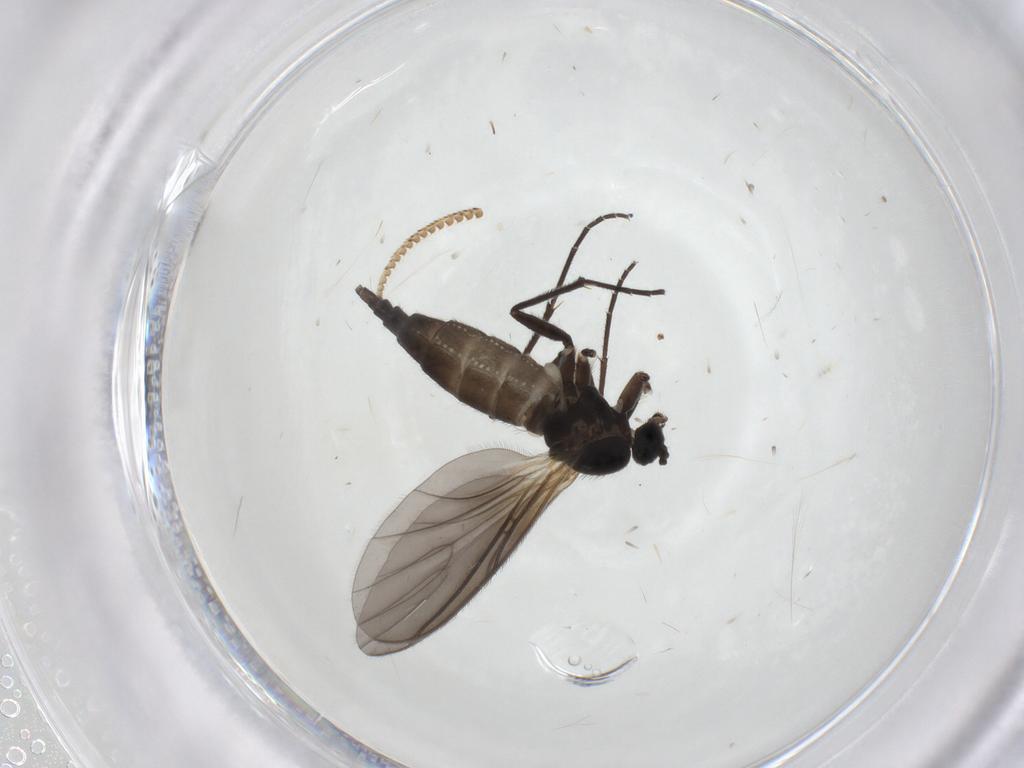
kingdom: Animalia
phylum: Arthropoda
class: Insecta
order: Diptera
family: Sciaridae
